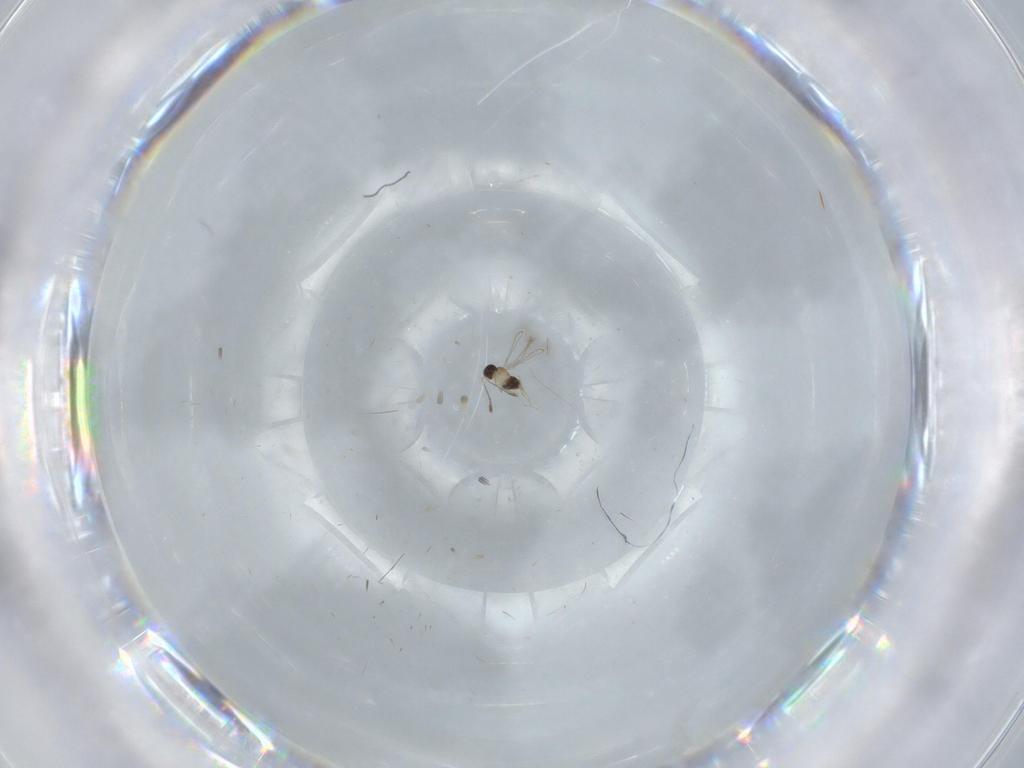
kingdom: Animalia
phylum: Arthropoda
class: Insecta
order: Hymenoptera
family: Mymaridae
